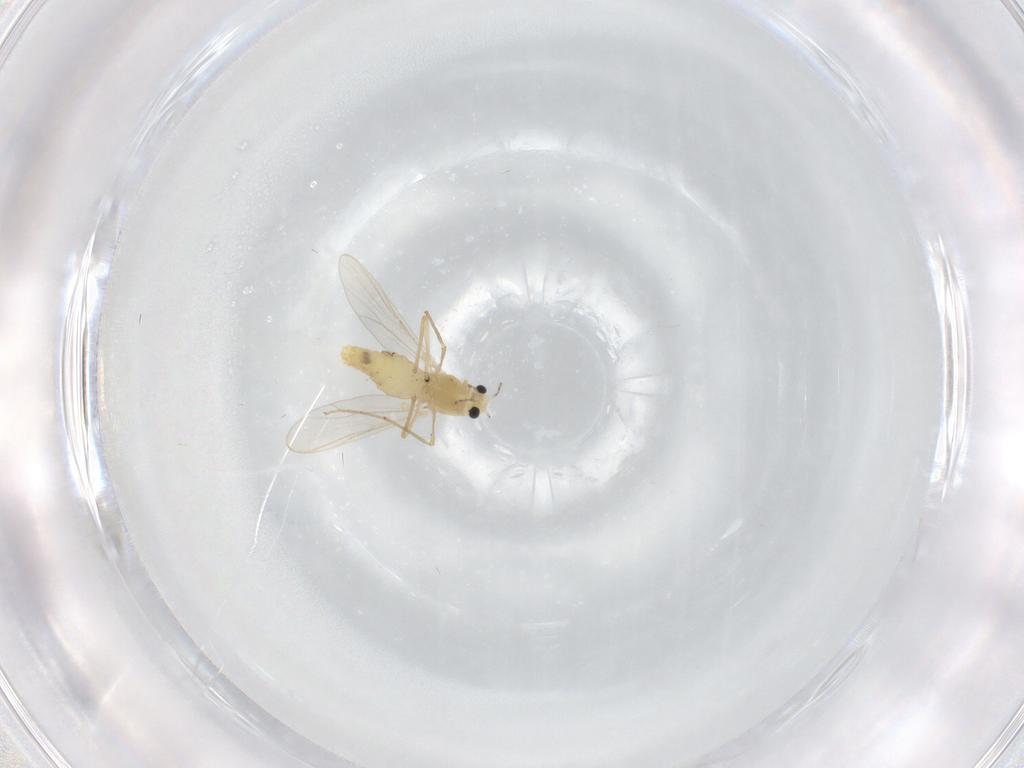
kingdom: Animalia
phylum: Arthropoda
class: Insecta
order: Diptera
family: Chironomidae
